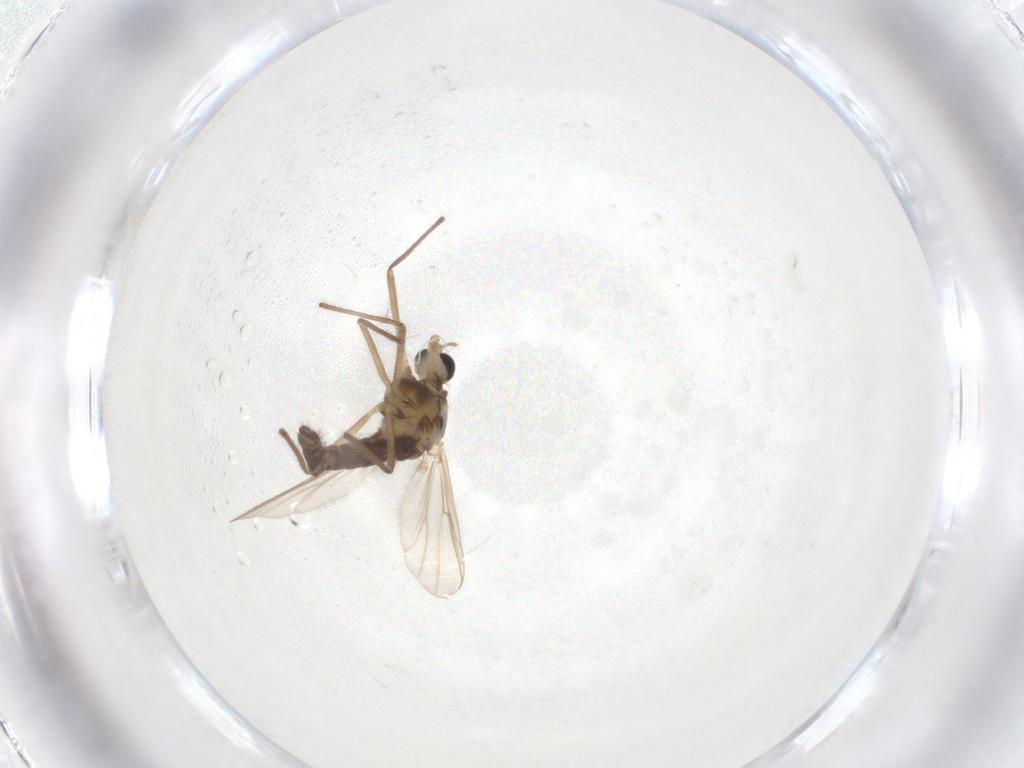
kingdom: Animalia
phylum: Arthropoda
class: Insecta
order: Diptera
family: Chironomidae
